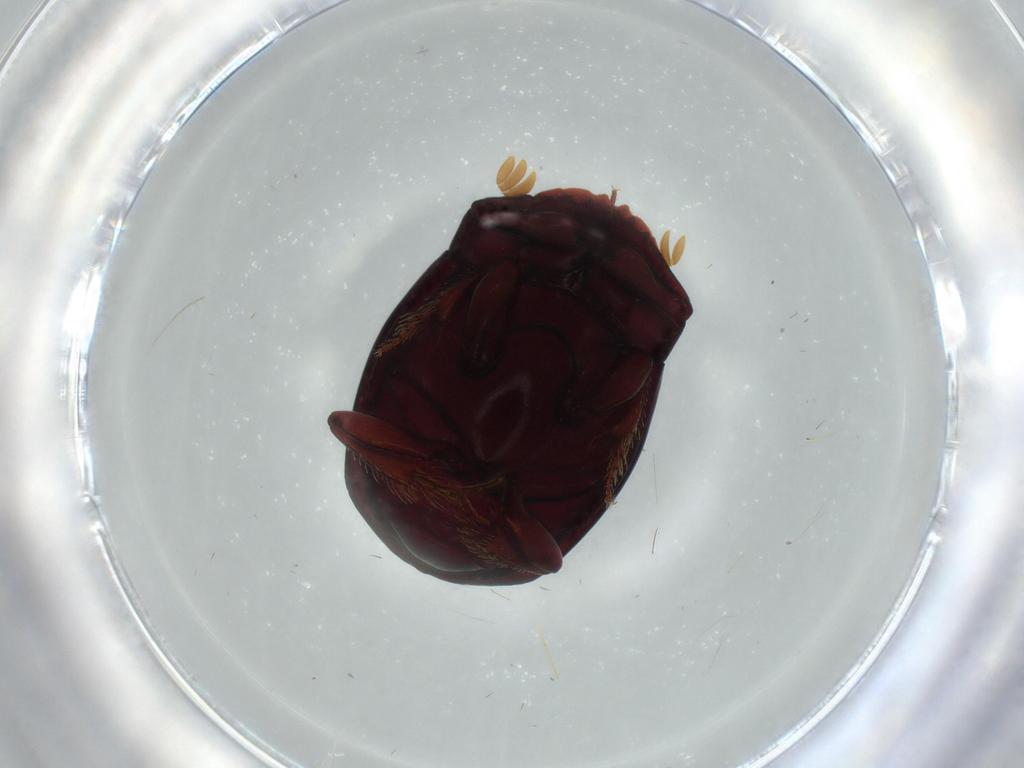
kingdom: Animalia
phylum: Arthropoda
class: Insecta
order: Coleoptera
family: Scarabaeidae
